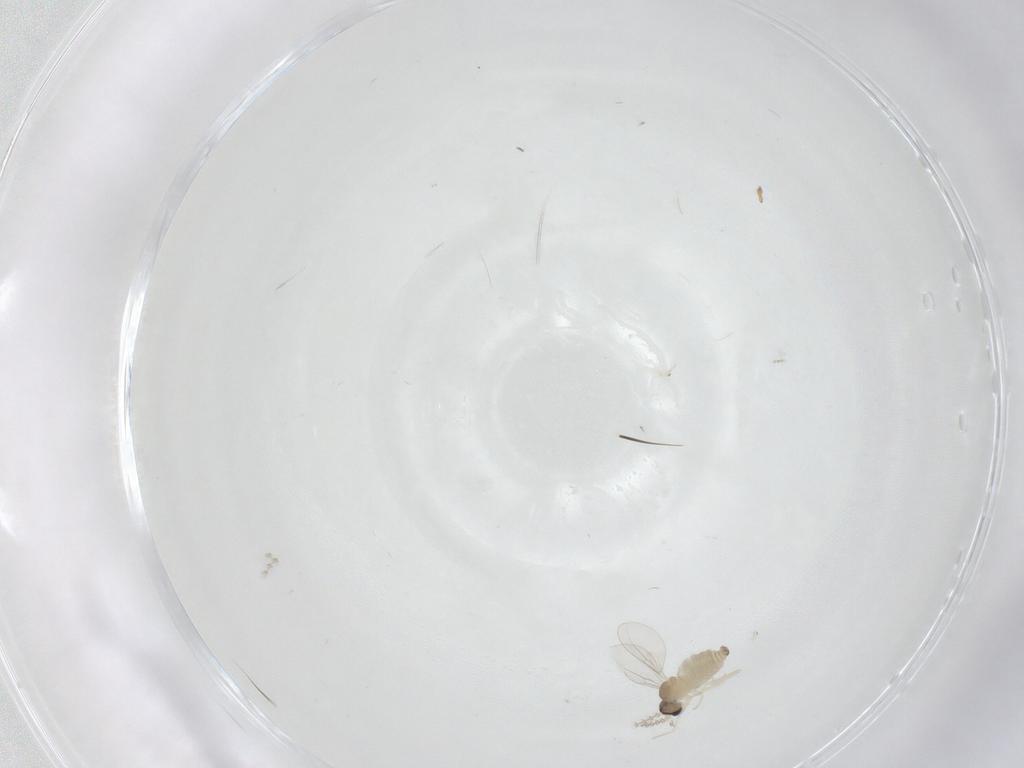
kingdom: Animalia
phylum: Arthropoda
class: Insecta
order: Diptera
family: Cecidomyiidae
